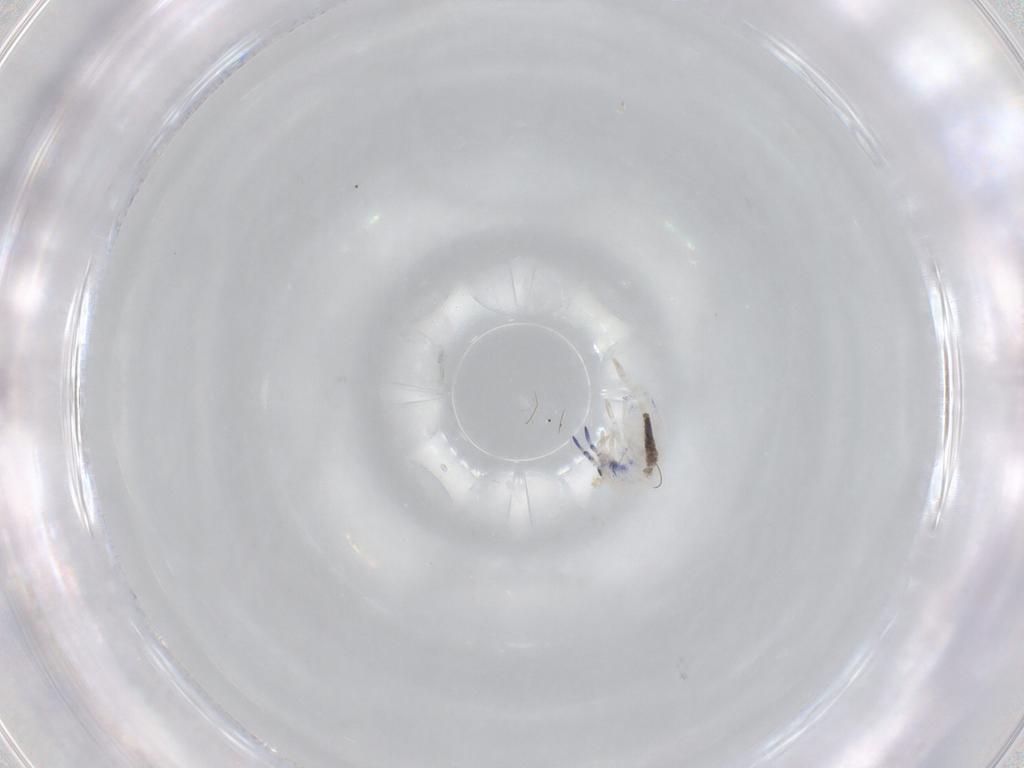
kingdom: Animalia
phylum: Arthropoda
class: Collembola
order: Entomobryomorpha
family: Entomobryidae
